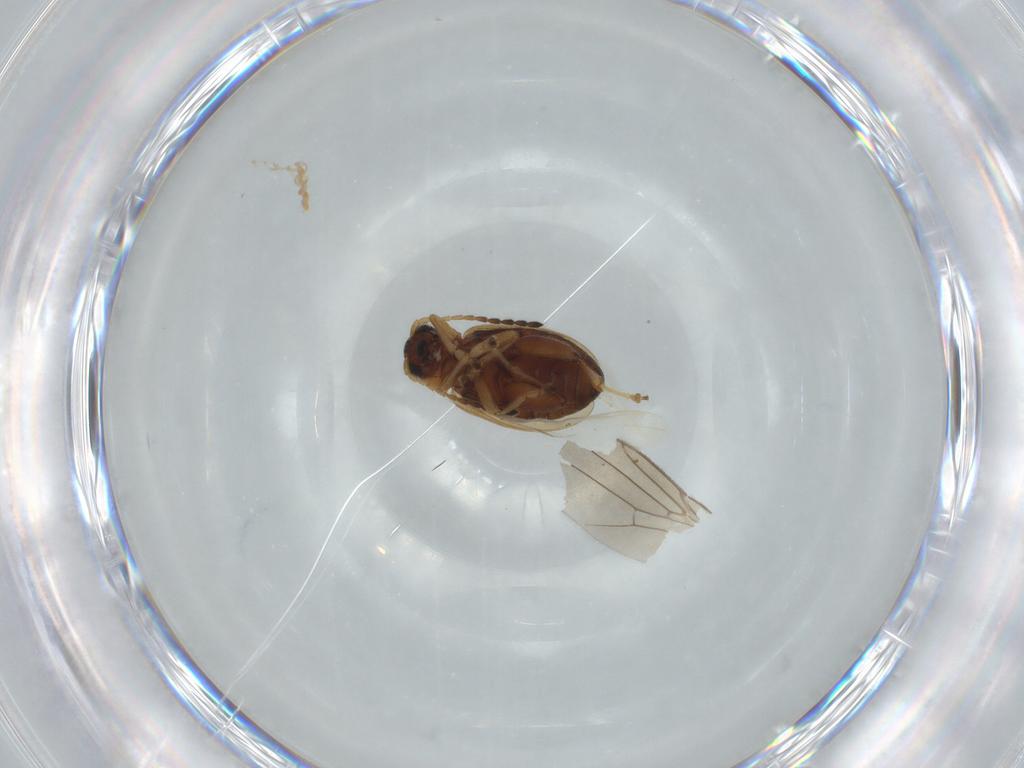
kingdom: Animalia
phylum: Arthropoda
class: Insecta
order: Coleoptera
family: Chrysomelidae
